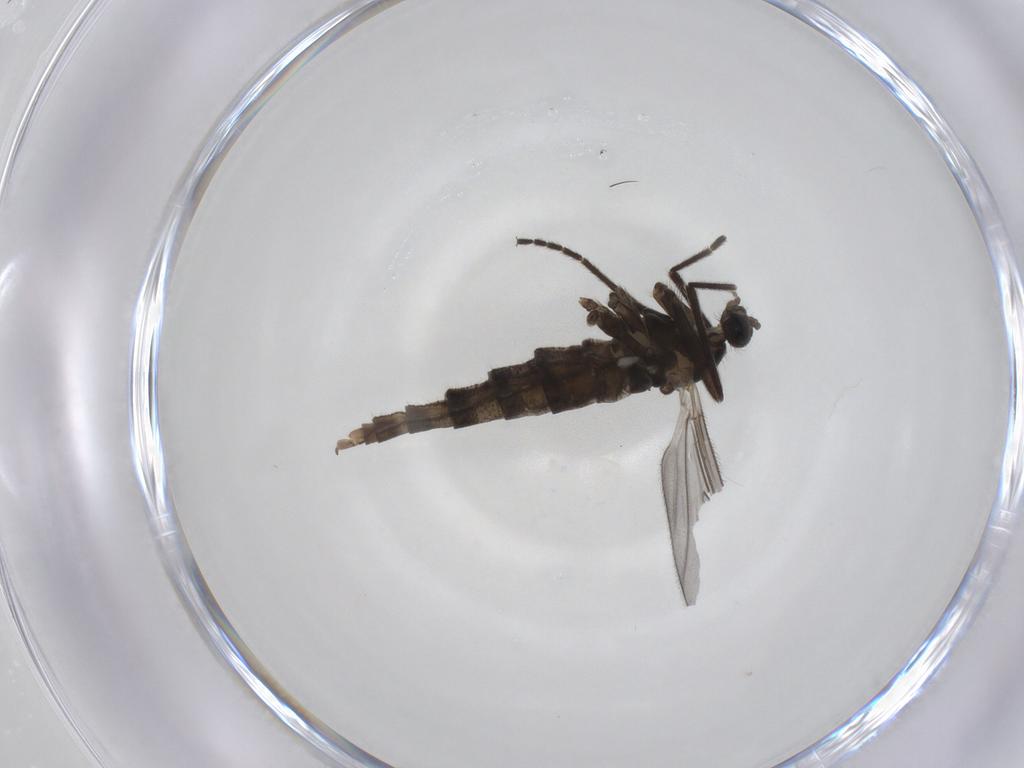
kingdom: Animalia
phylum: Arthropoda
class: Insecta
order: Diptera
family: Cecidomyiidae
